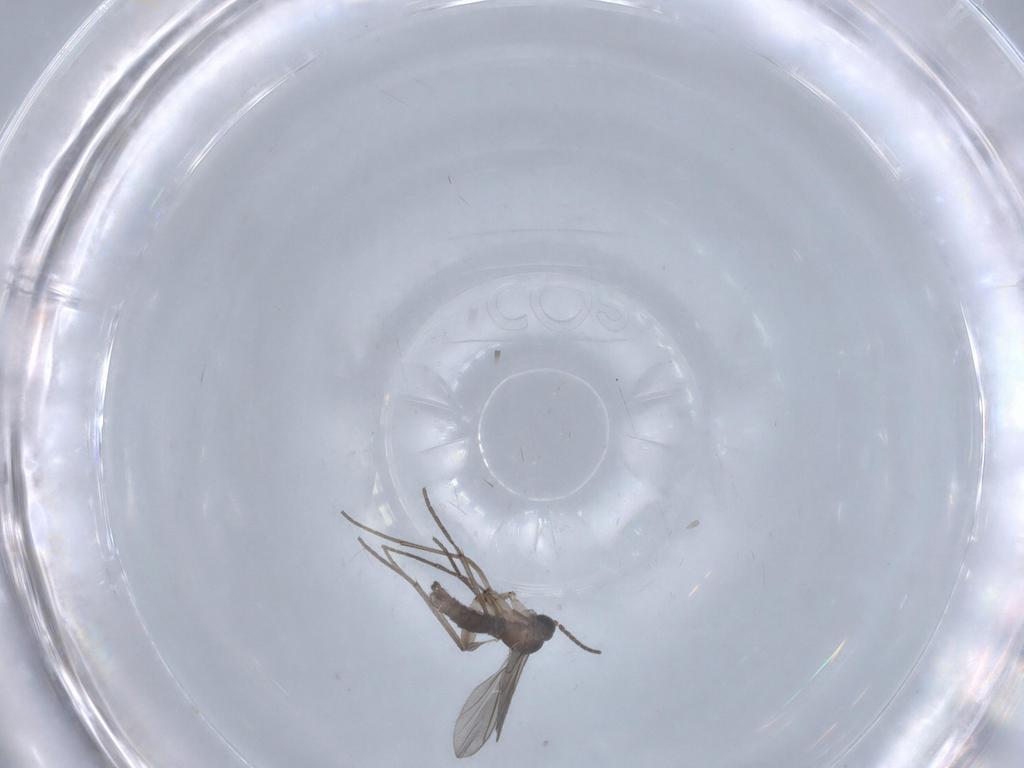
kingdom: Animalia
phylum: Arthropoda
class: Insecta
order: Diptera
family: Sciaridae
